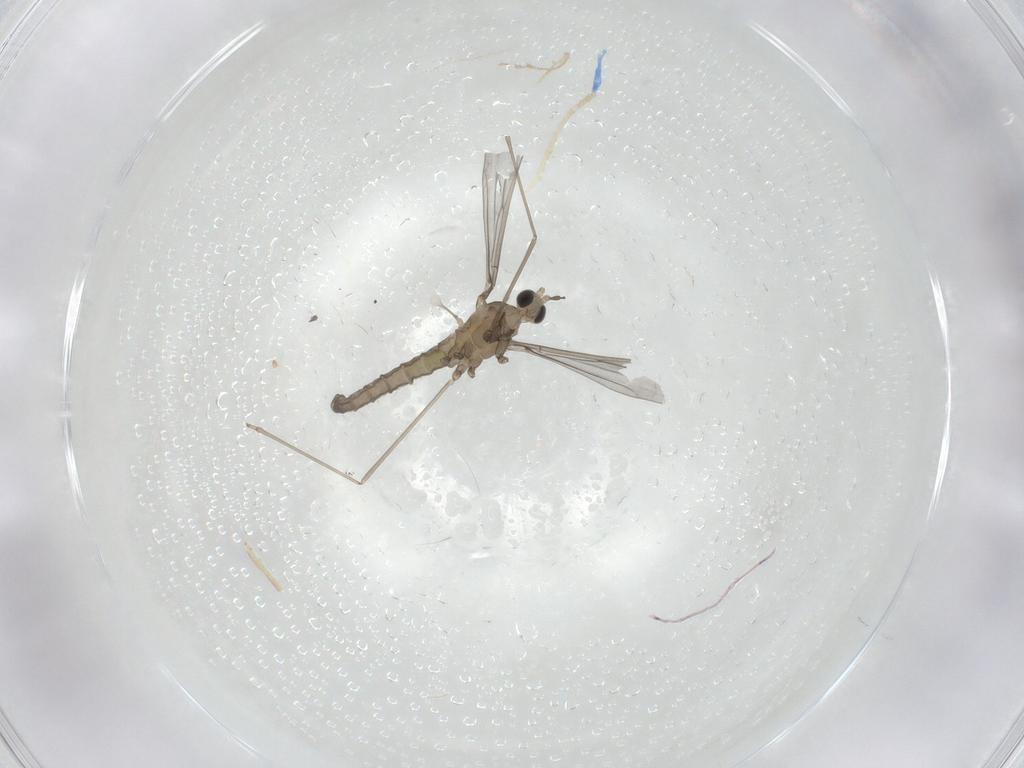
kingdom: Animalia
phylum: Arthropoda
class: Insecta
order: Diptera
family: Cecidomyiidae
